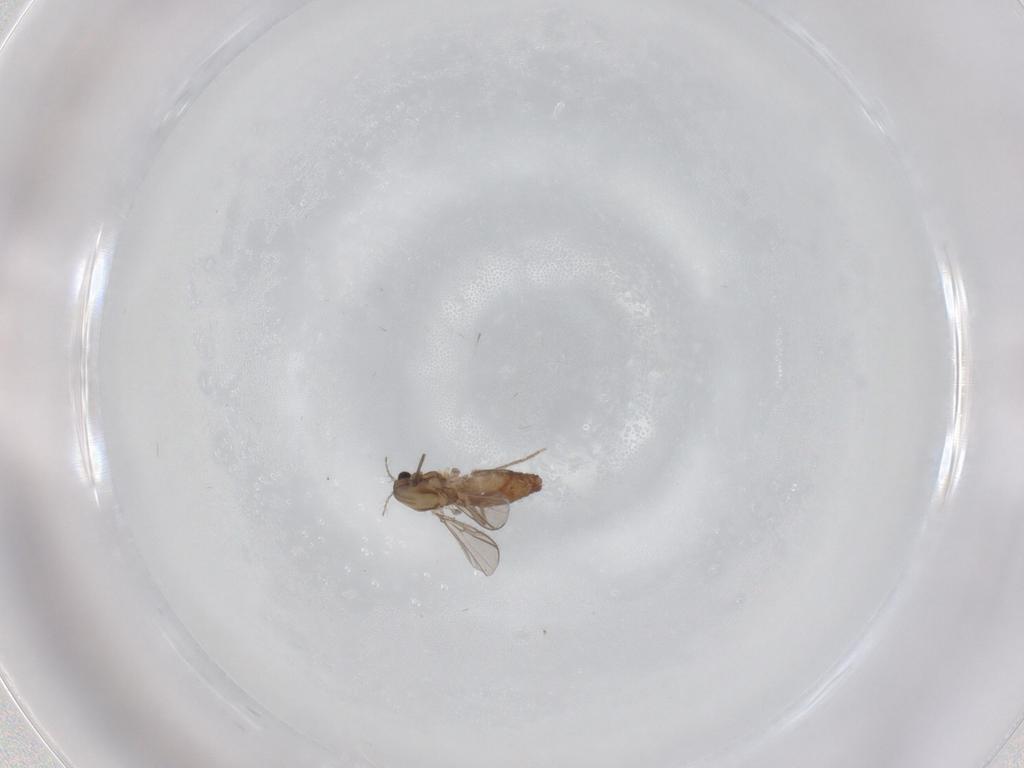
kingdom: Animalia
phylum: Arthropoda
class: Insecta
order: Diptera
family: Chironomidae
